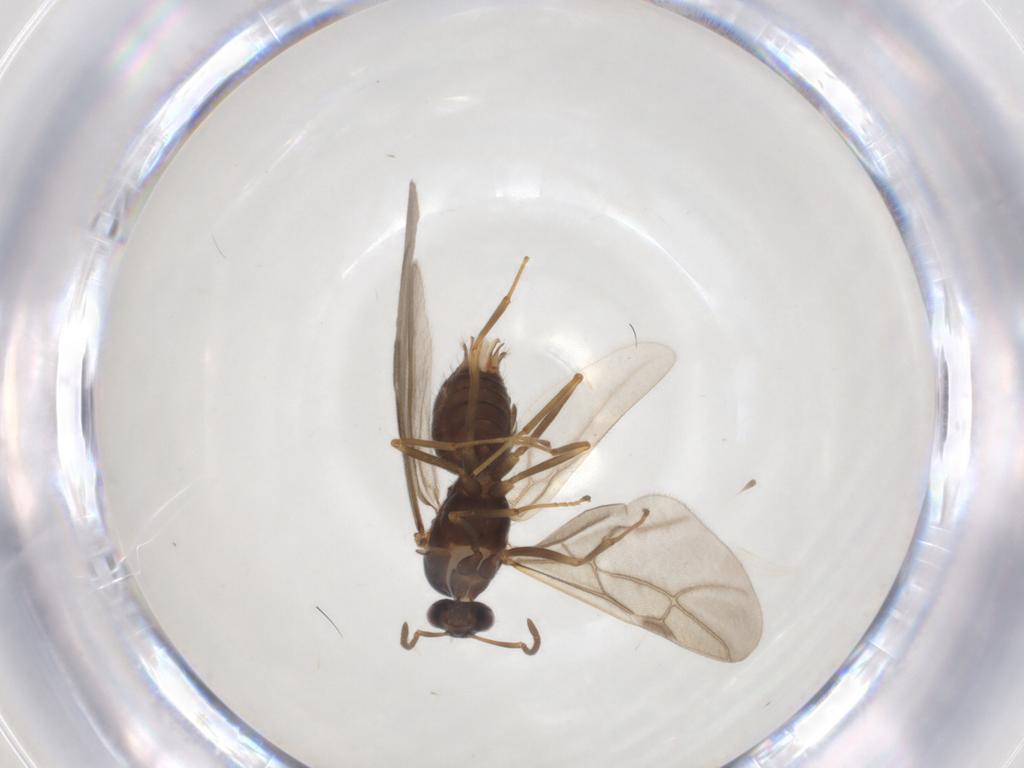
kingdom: Animalia
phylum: Arthropoda
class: Insecta
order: Hymenoptera
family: Formicidae
